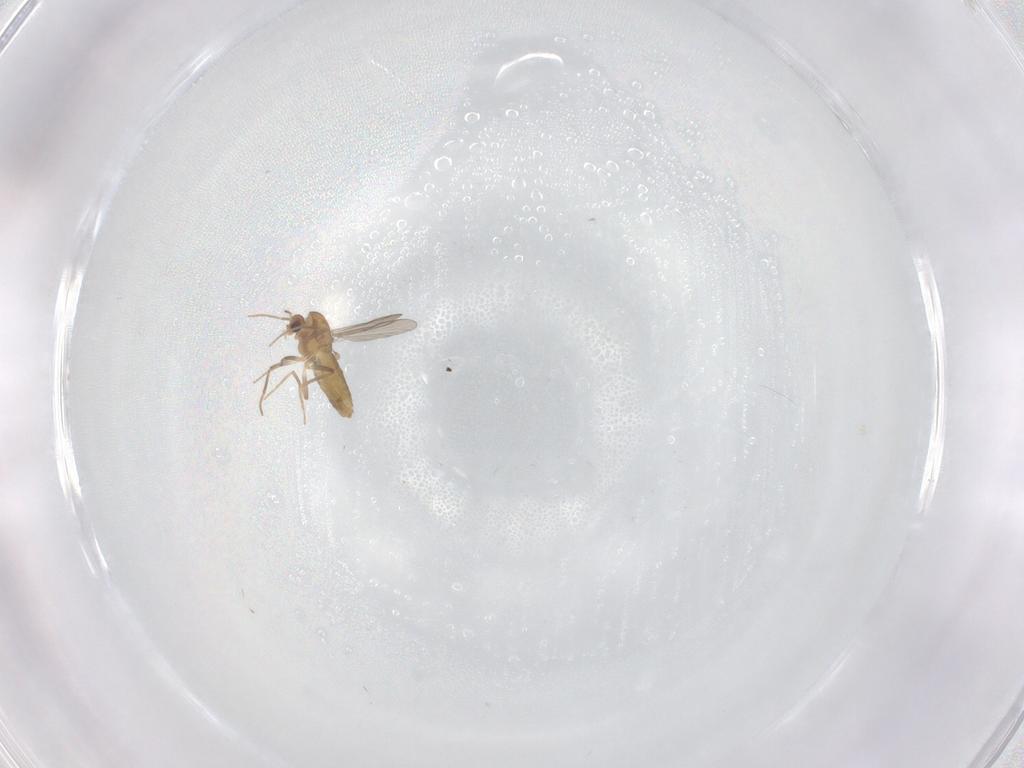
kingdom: Animalia
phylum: Arthropoda
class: Insecta
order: Diptera
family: Chironomidae
